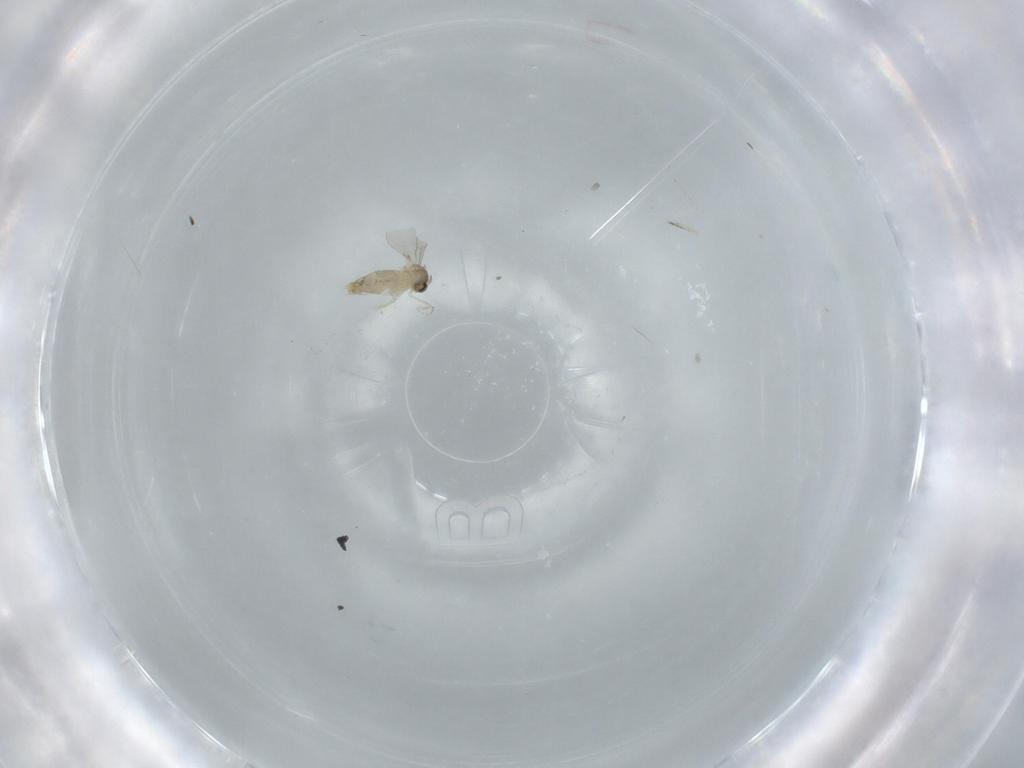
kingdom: Animalia
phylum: Arthropoda
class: Insecta
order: Diptera
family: Cecidomyiidae
